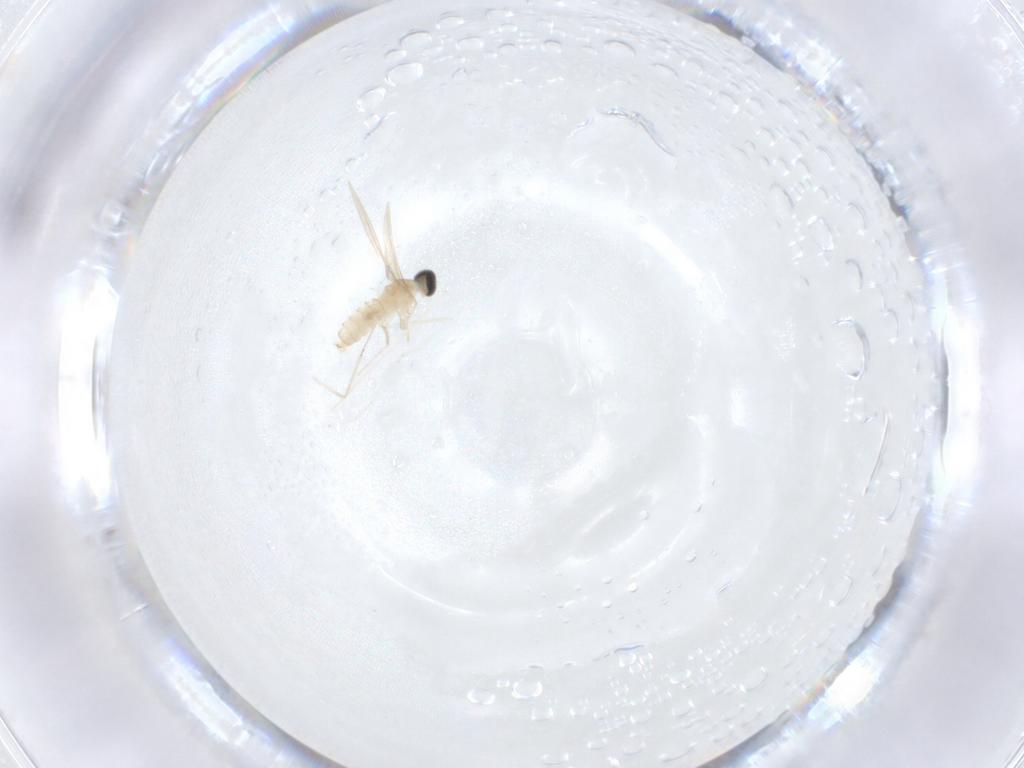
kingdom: Animalia
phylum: Arthropoda
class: Insecta
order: Diptera
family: Cecidomyiidae
